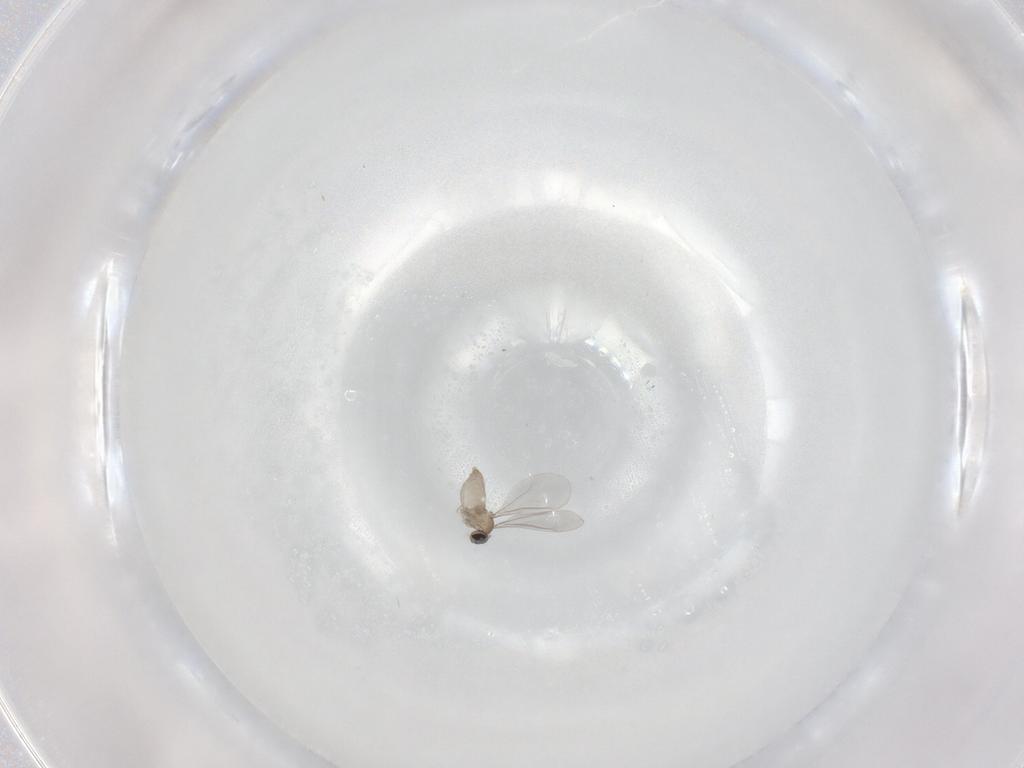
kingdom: Animalia
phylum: Arthropoda
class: Insecta
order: Diptera
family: Cecidomyiidae
